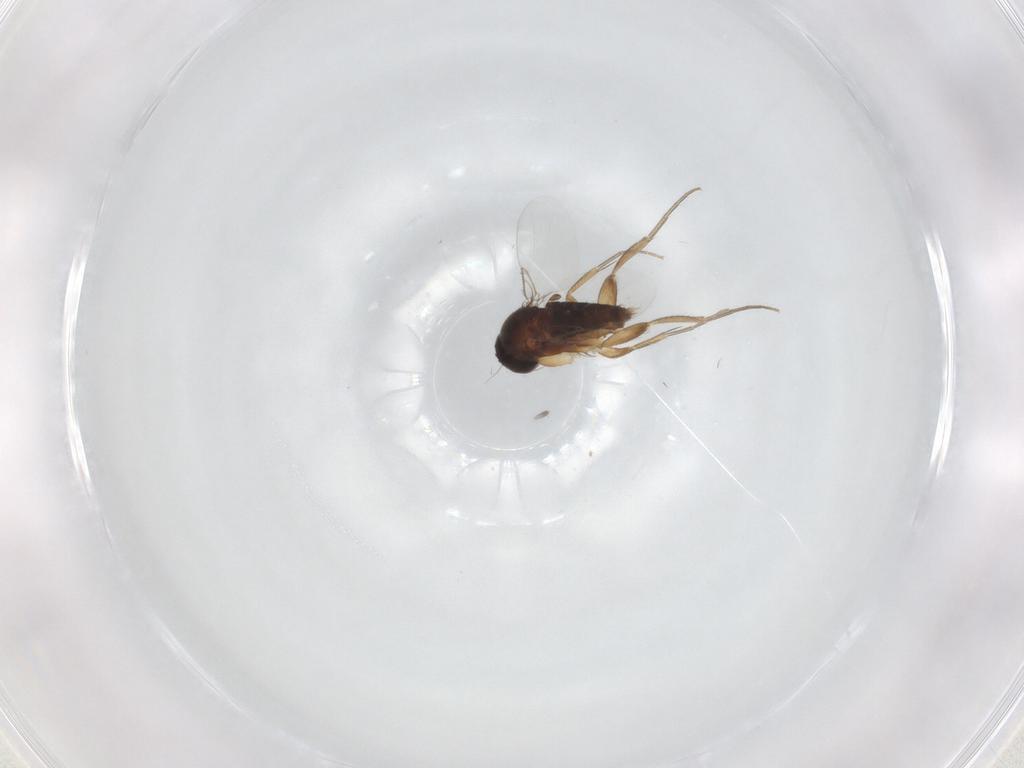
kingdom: Animalia
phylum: Arthropoda
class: Insecta
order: Diptera
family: Phoridae
